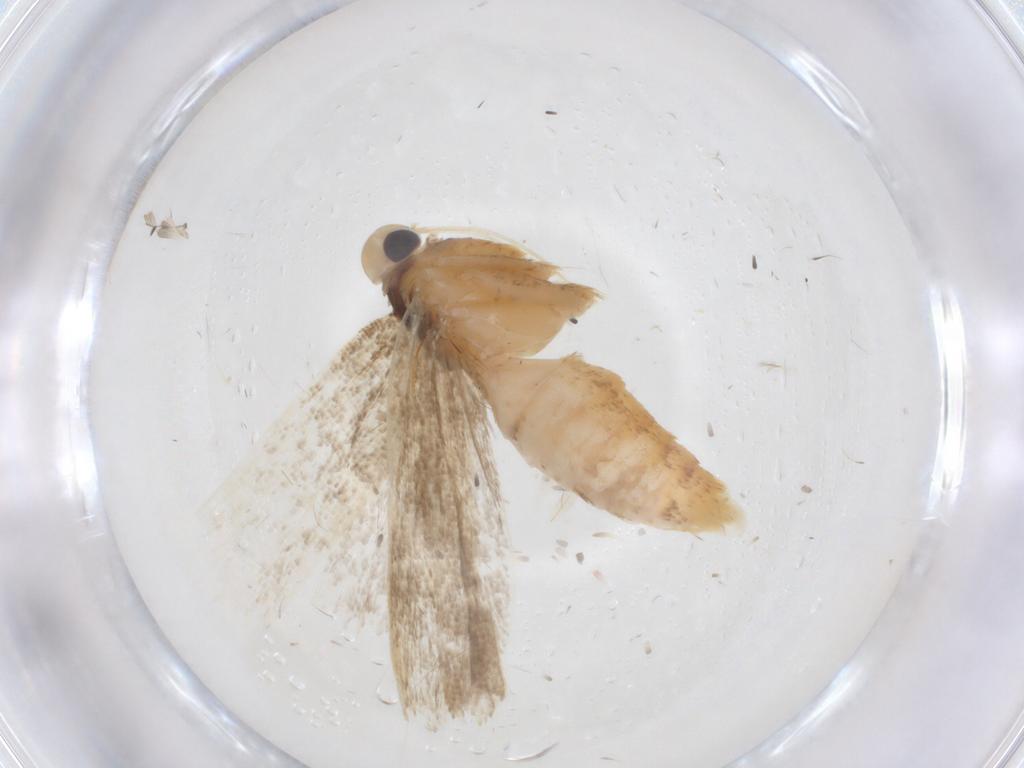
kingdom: Animalia
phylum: Arthropoda
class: Insecta
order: Lepidoptera
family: Gelechiidae
